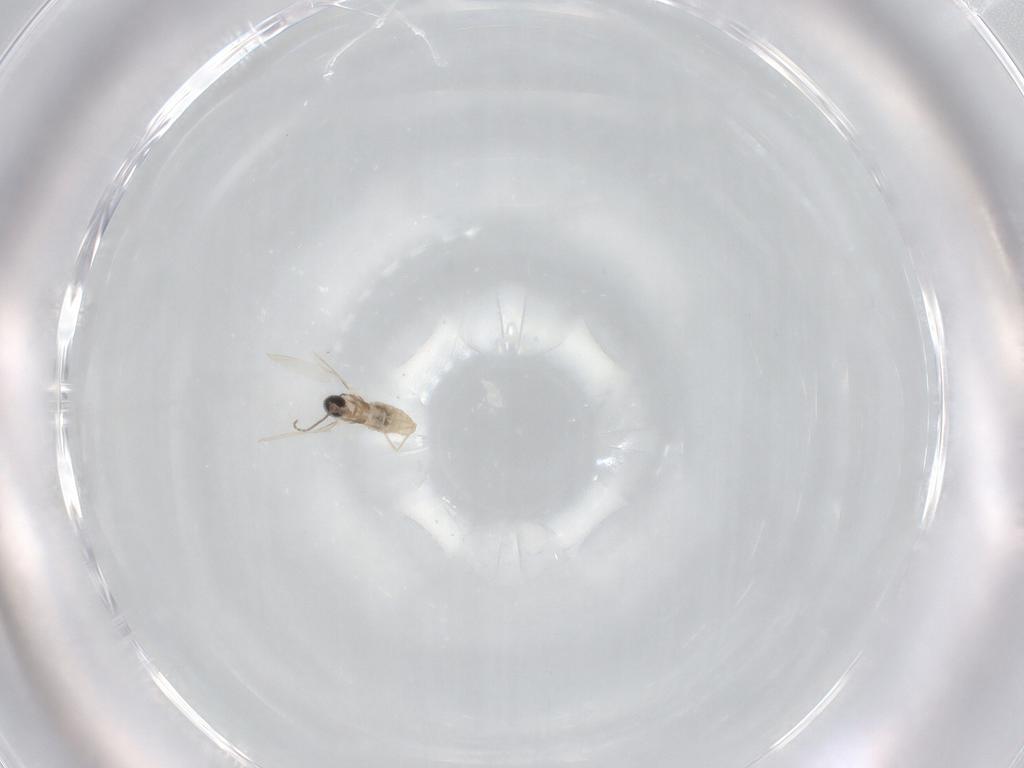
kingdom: Animalia
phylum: Arthropoda
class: Insecta
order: Diptera
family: Cecidomyiidae
